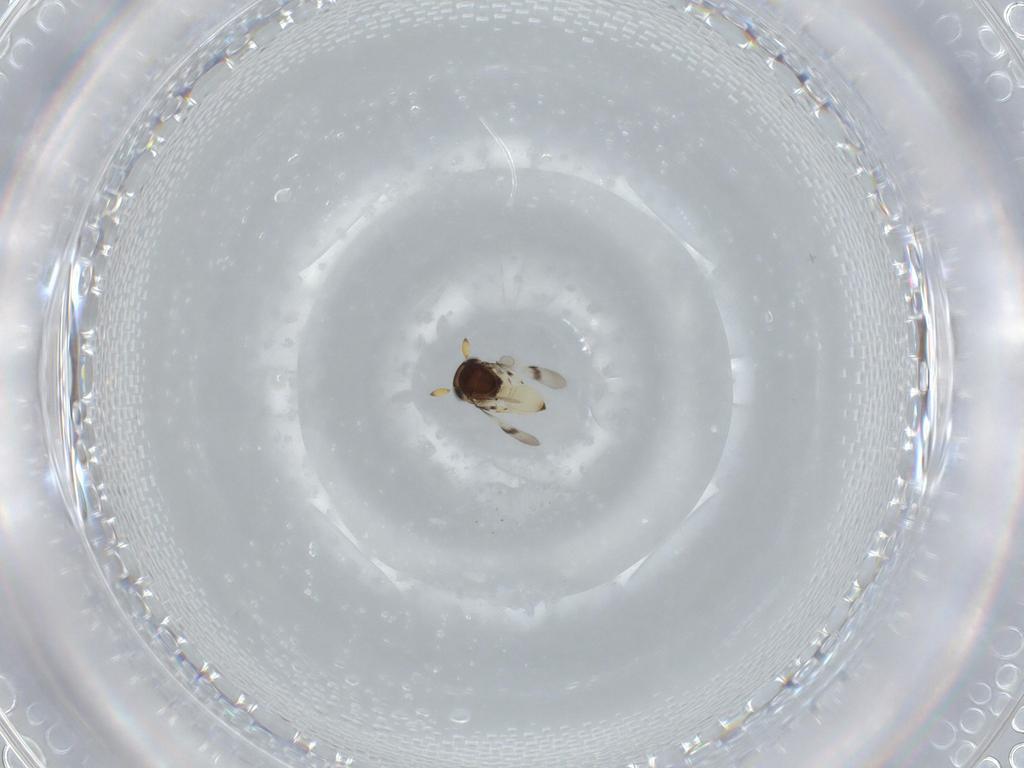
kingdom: Animalia
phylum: Arthropoda
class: Insecta
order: Hymenoptera
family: Scelionidae
